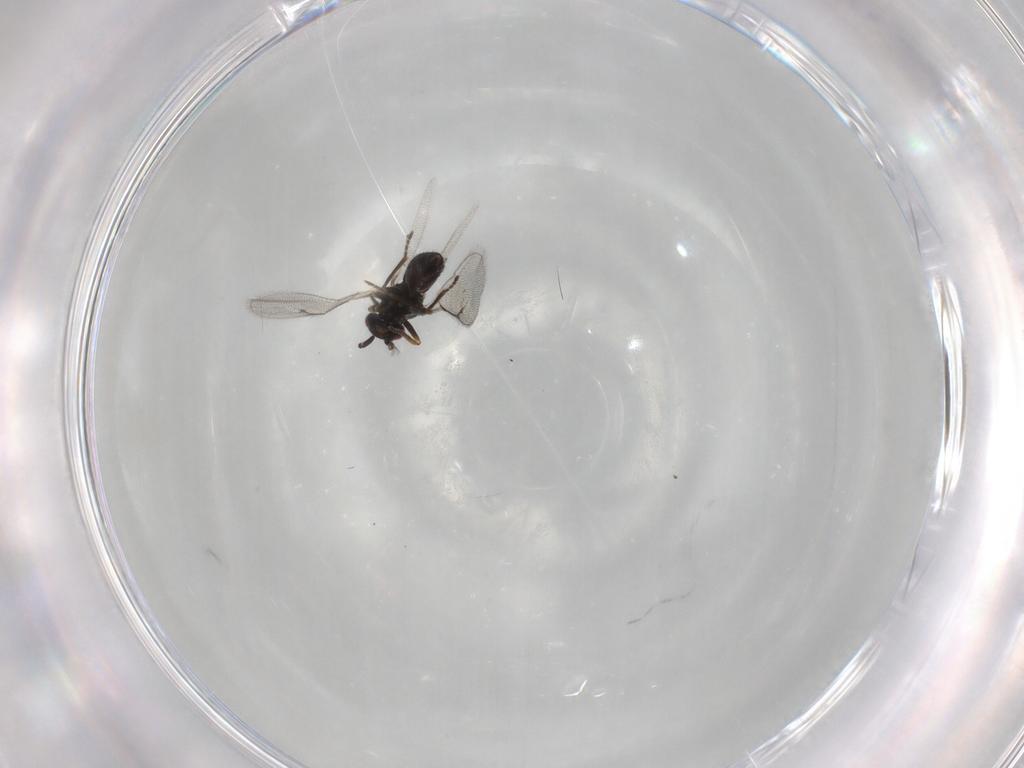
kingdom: Animalia
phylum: Arthropoda
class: Insecta
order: Hymenoptera
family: Eulophidae
